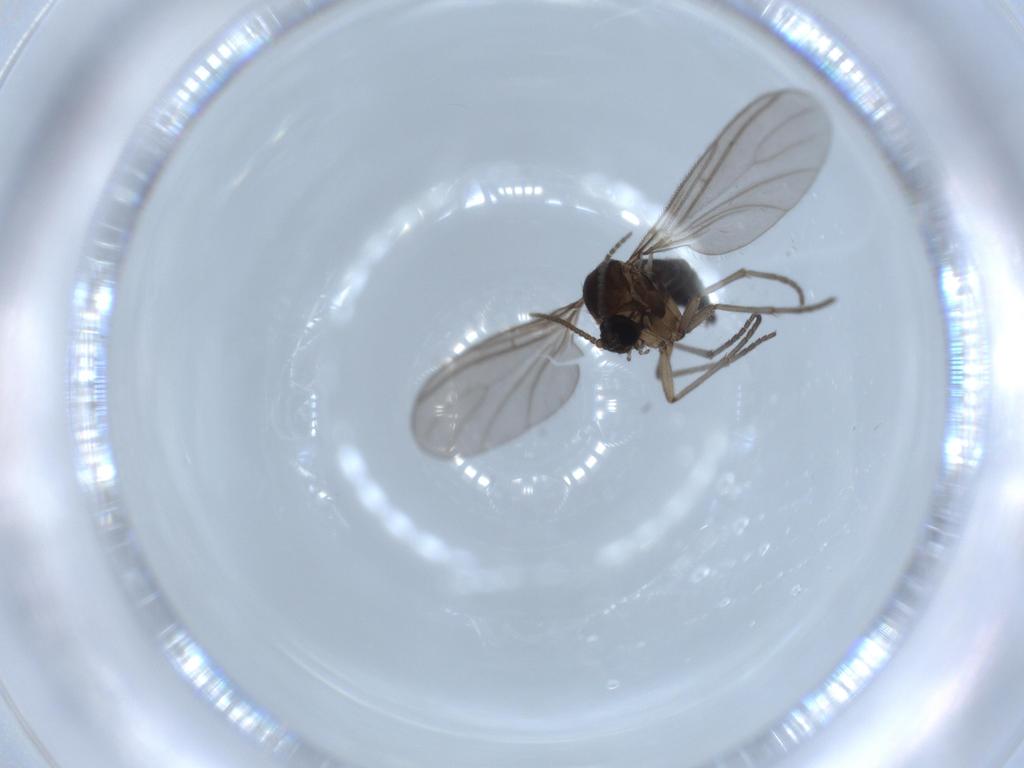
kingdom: Animalia
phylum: Arthropoda
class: Insecta
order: Diptera
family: Sciaridae
